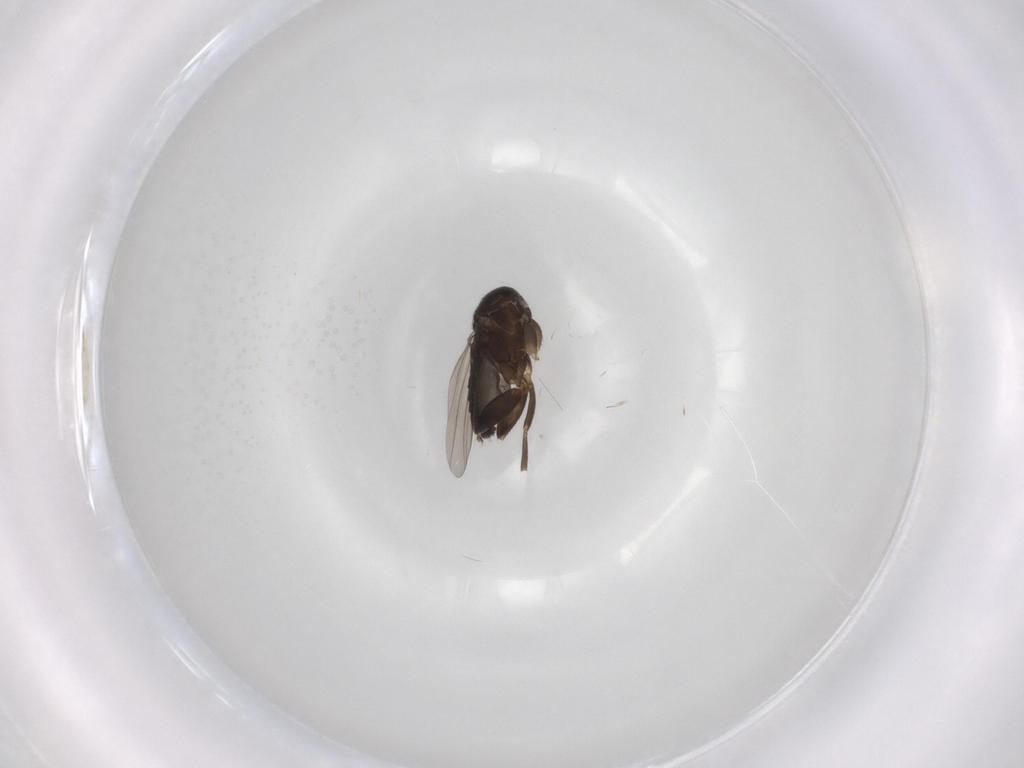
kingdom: Animalia
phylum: Arthropoda
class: Insecta
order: Diptera
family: Phoridae
